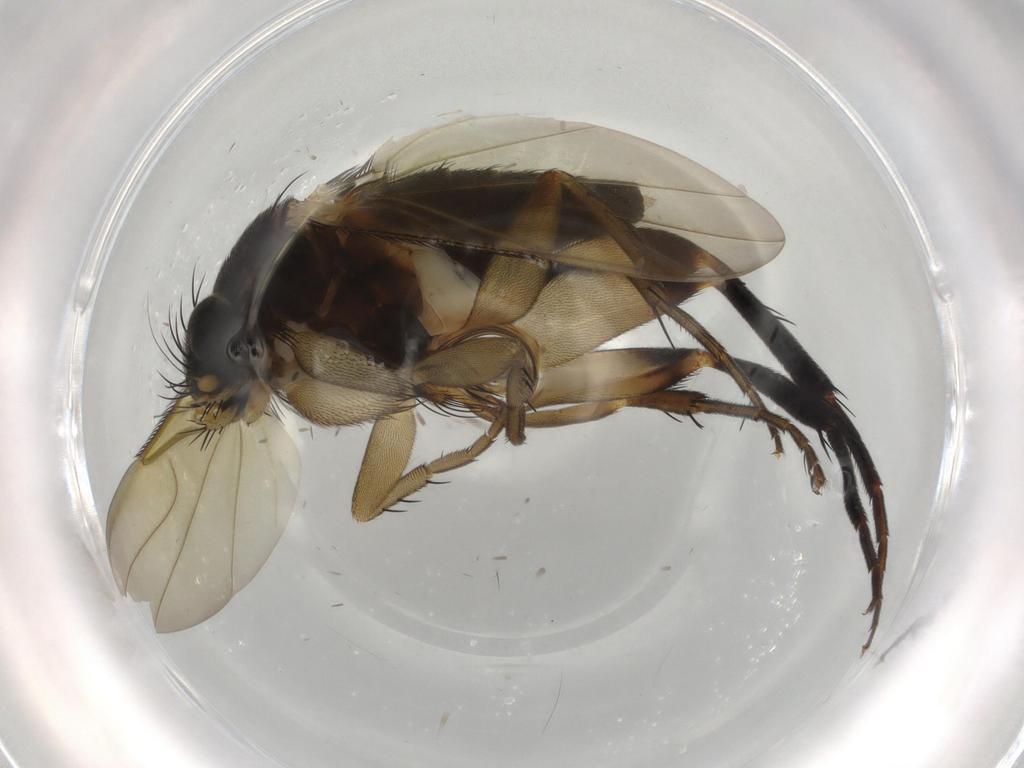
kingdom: Animalia
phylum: Arthropoda
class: Insecta
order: Diptera
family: Phoridae
